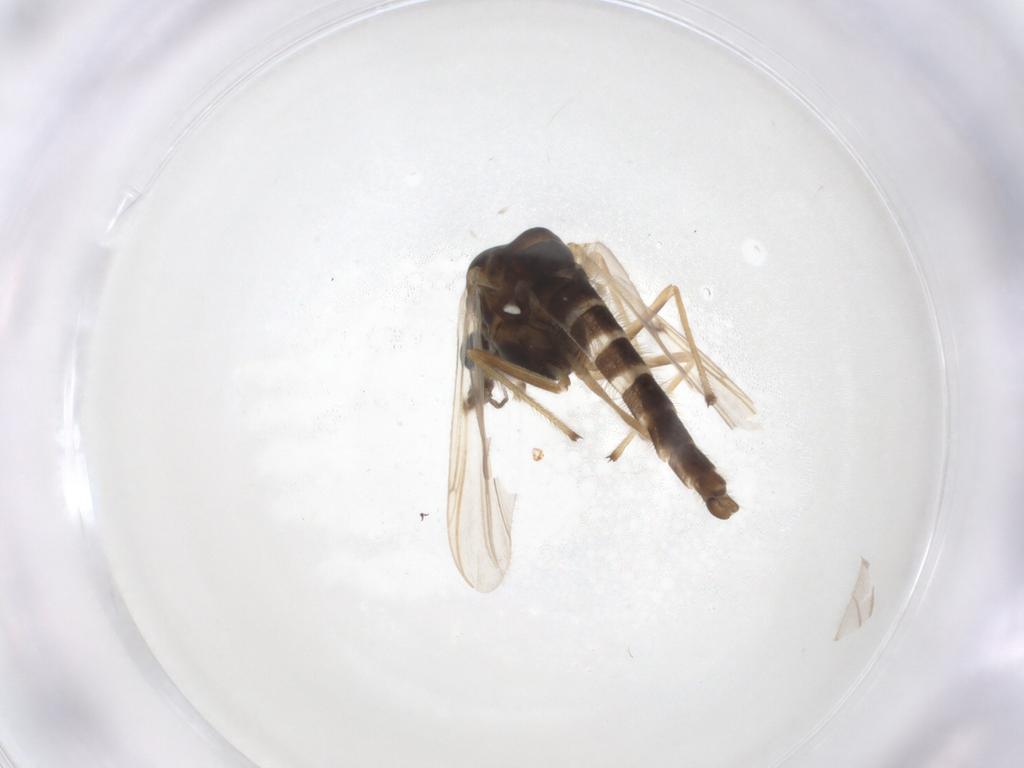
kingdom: Animalia
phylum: Arthropoda
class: Insecta
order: Diptera
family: Chironomidae
